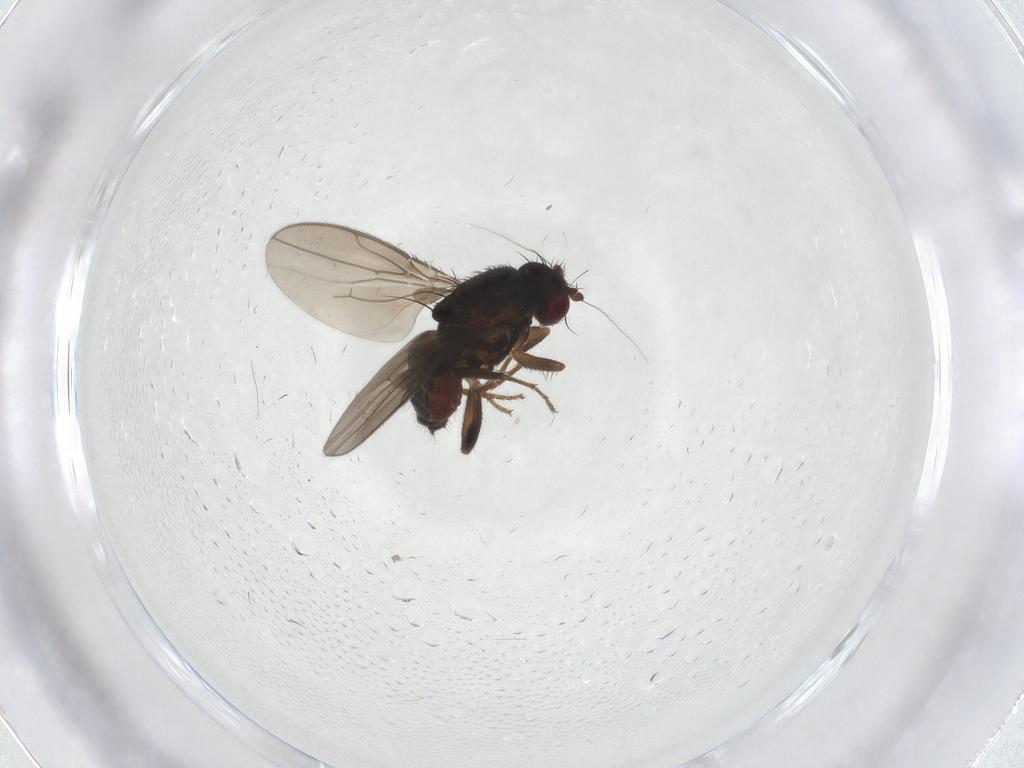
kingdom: Animalia
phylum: Arthropoda
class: Insecta
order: Diptera
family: Sphaeroceridae
